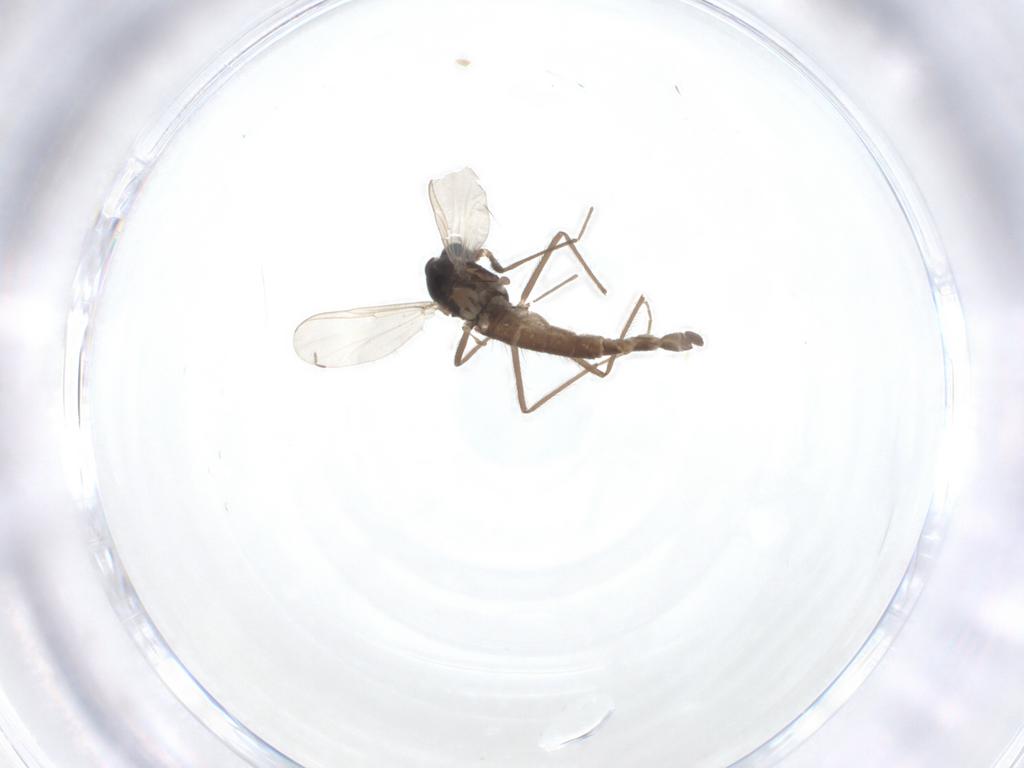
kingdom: Animalia
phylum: Arthropoda
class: Insecta
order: Diptera
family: Chironomidae
